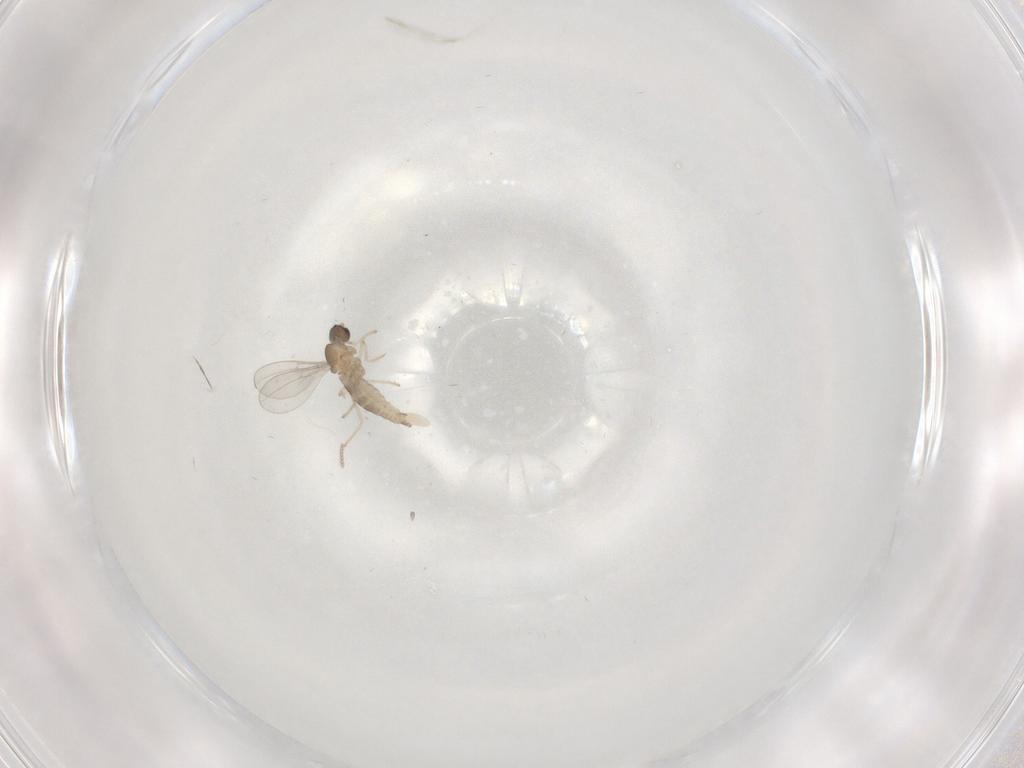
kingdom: Animalia
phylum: Arthropoda
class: Insecta
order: Diptera
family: Cecidomyiidae
